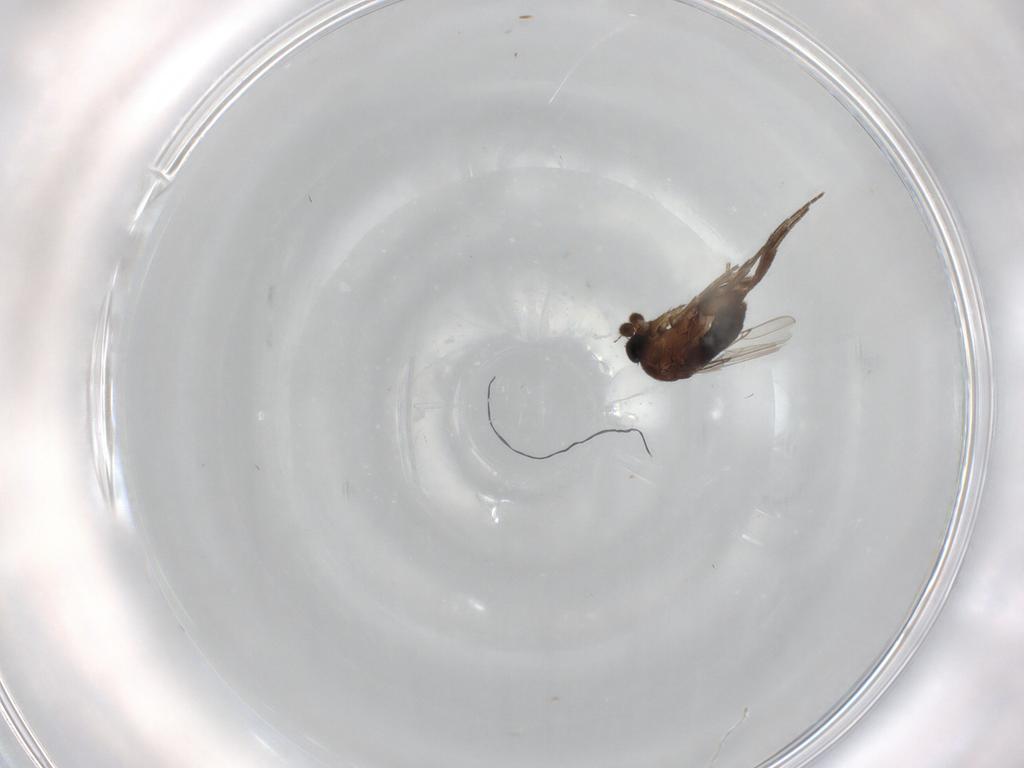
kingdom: Animalia
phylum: Arthropoda
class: Insecta
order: Diptera
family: Phoridae
